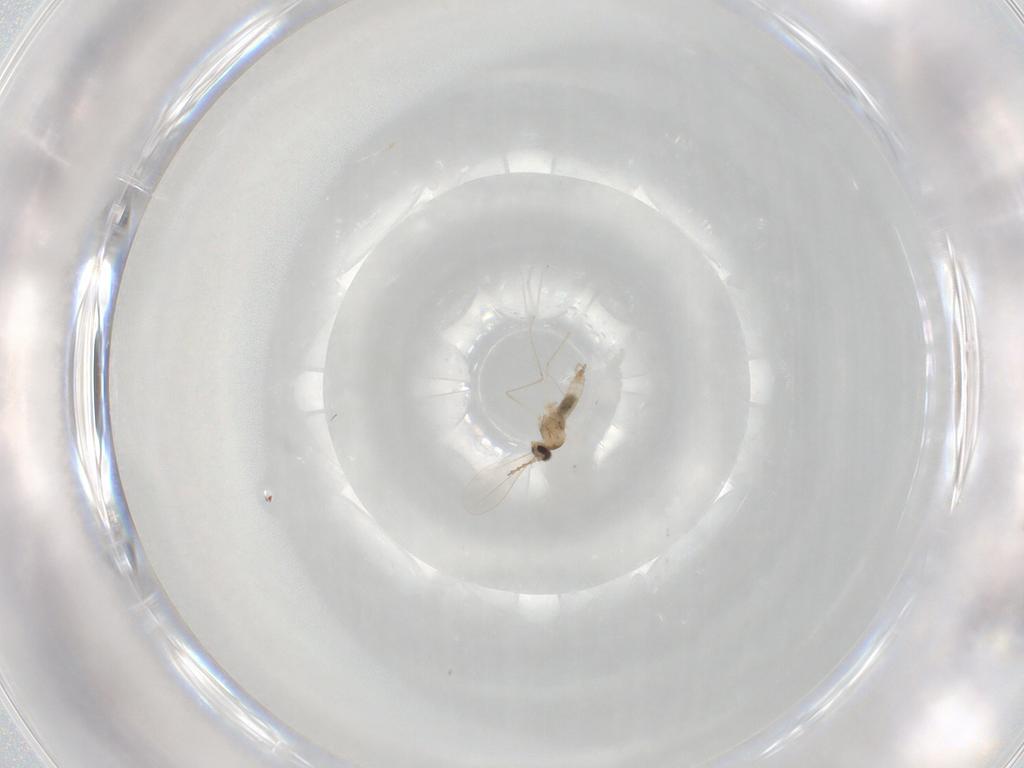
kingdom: Animalia
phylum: Arthropoda
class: Insecta
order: Diptera
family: Cecidomyiidae
